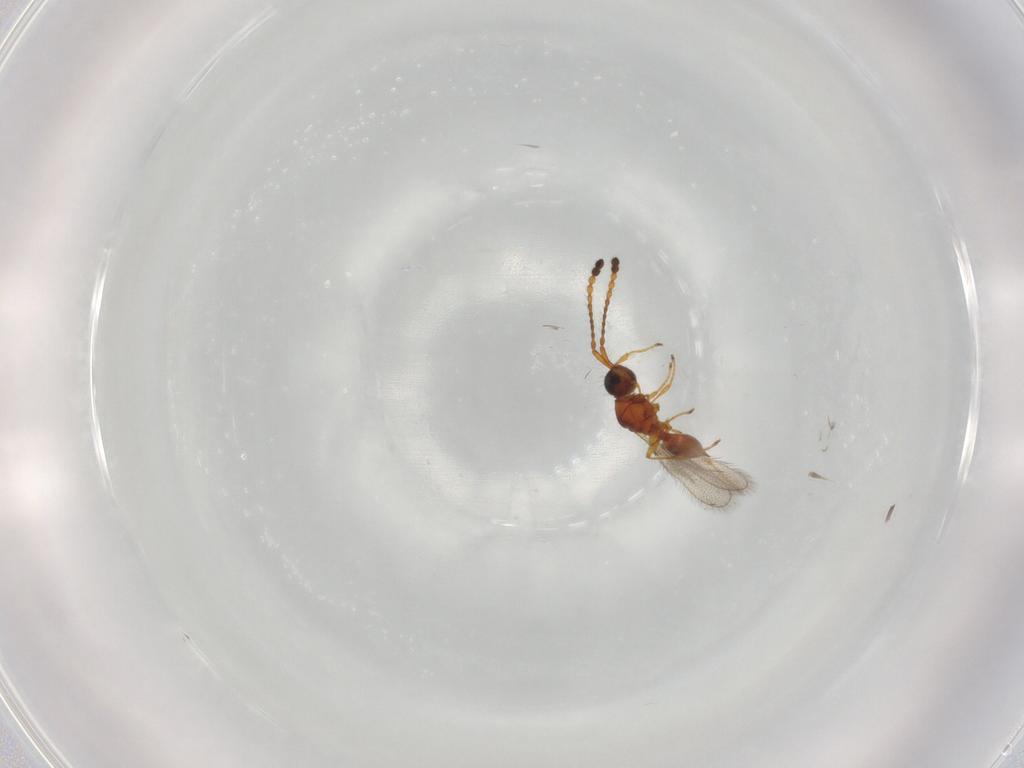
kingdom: Animalia
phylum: Arthropoda
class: Insecta
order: Hymenoptera
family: Diapriidae
